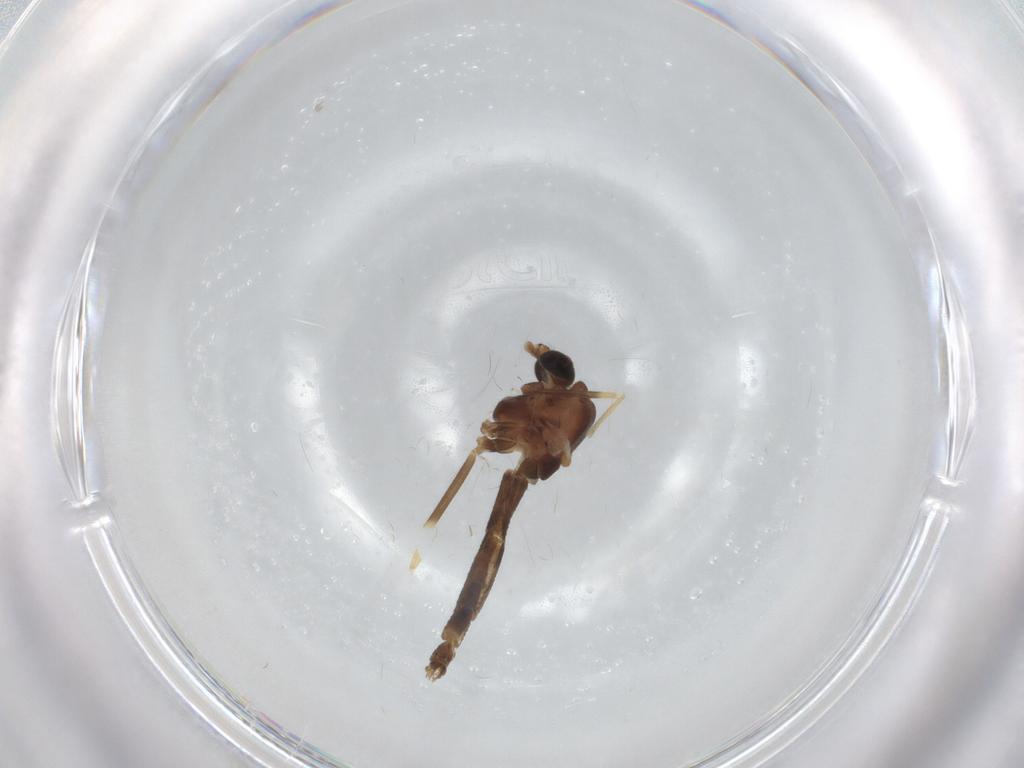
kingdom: Animalia
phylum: Arthropoda
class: Insecta
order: Diptera
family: Chironomidae
